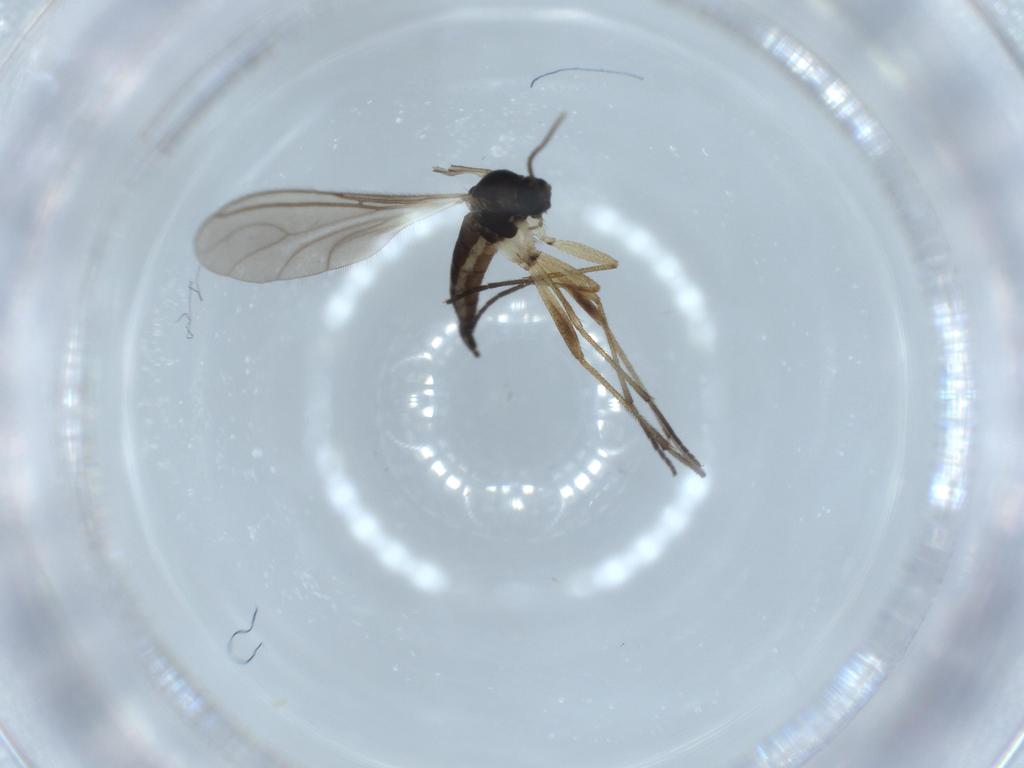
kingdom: Animalia
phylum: Arthropoda
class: Insecta
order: Diptera
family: Sciaridae
